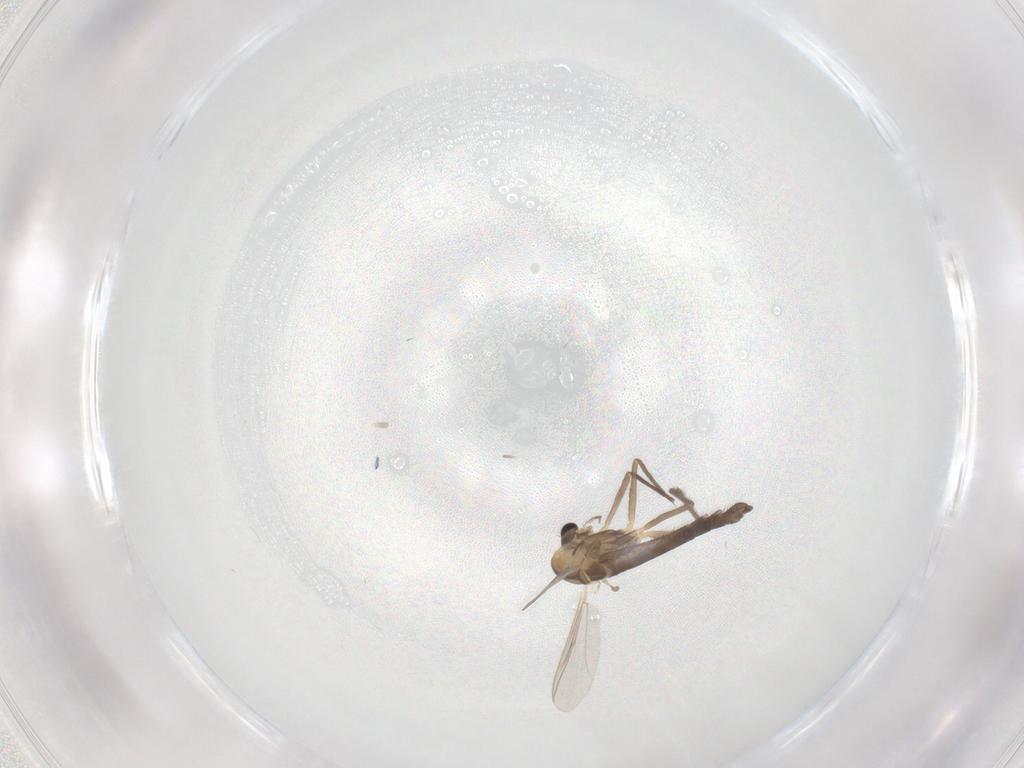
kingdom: Animalia
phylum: Arthropoda
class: Insecta
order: Diptera
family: Chironomidae
